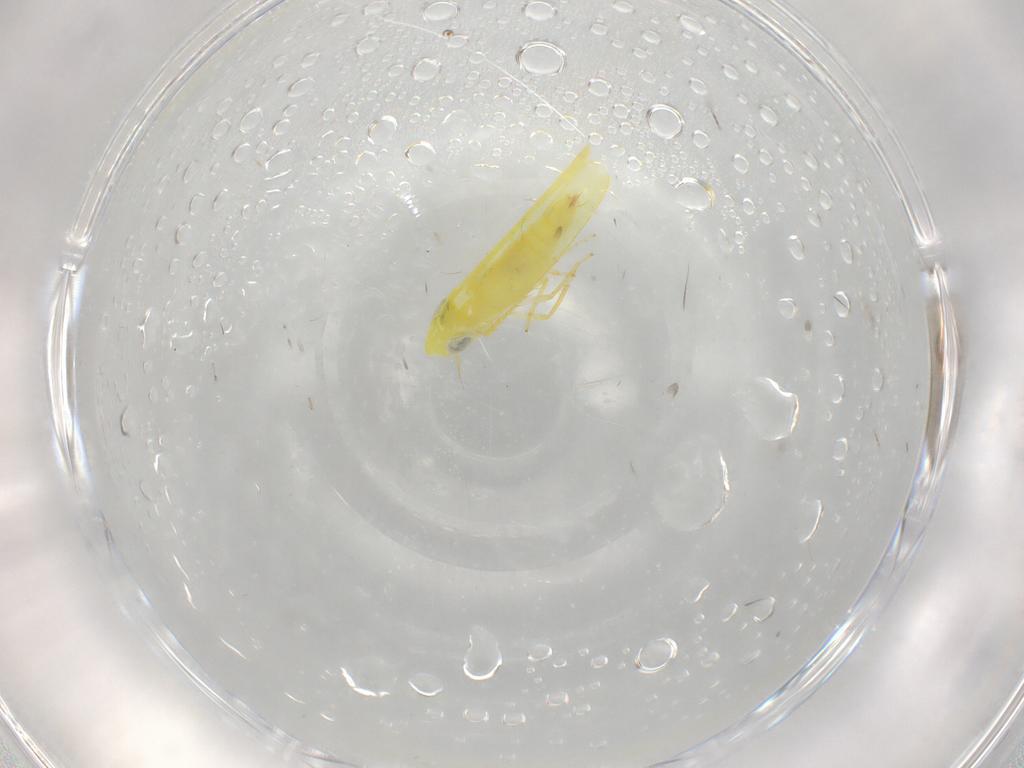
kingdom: Animalia
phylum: Arthropoda
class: Insecta
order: Hemiptera
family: Cicadellidae
